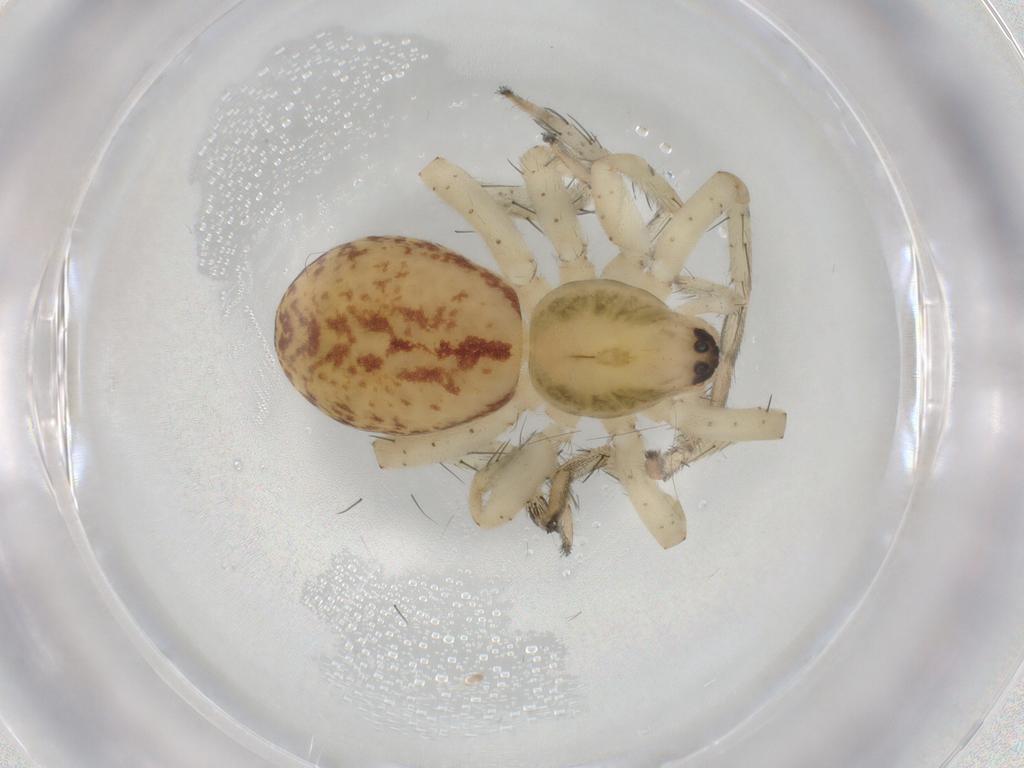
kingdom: Animalia
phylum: Arthropoda
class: Arachnida
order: Araneae
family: Anyphaenidae
